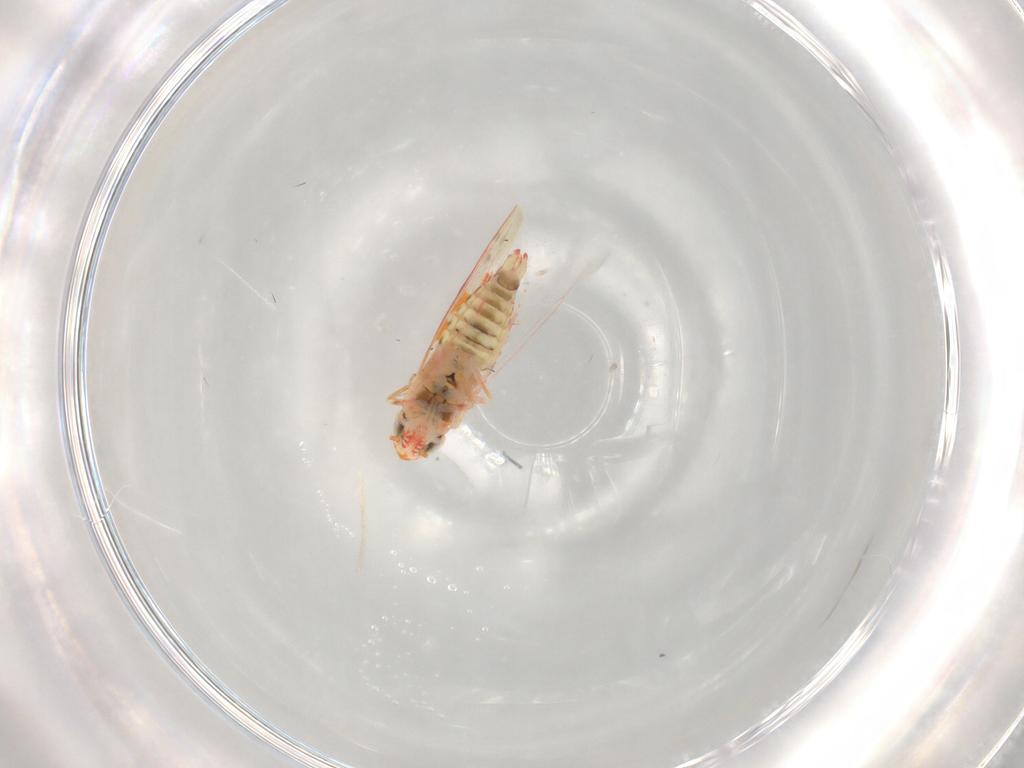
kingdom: Animalia
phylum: Arthropoda
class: Insecta
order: Hemiptera
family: Cicadellidae
